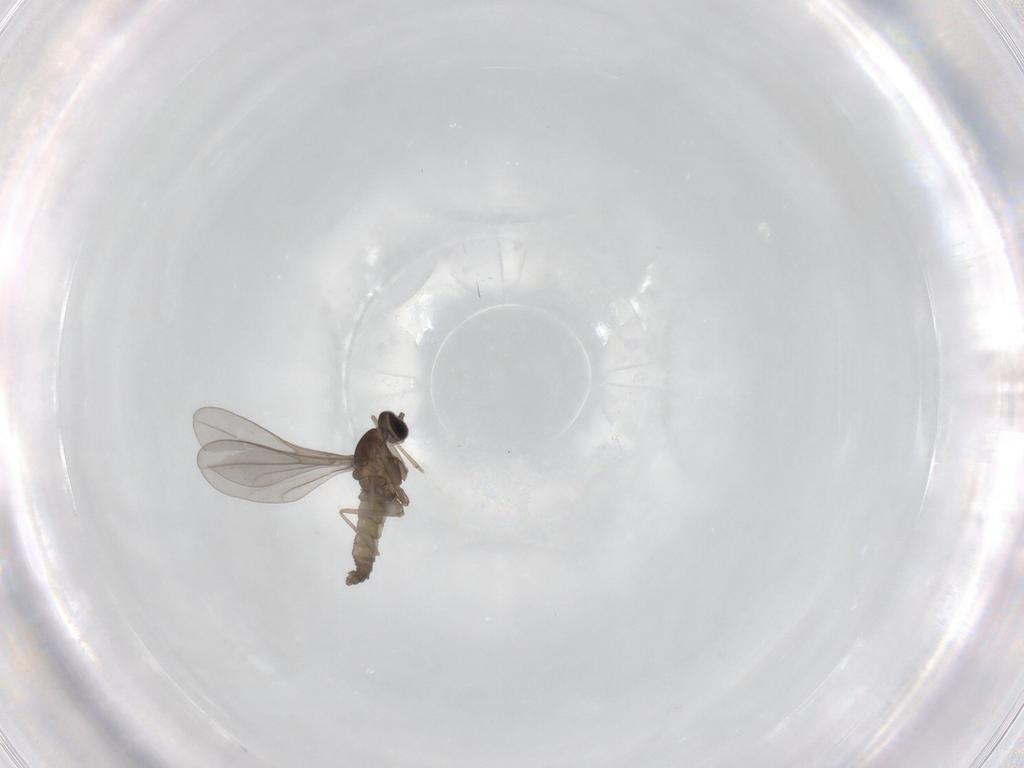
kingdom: Animalia
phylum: Arthropoda
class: Insecta
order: Diptera
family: Cecidomyiidae
